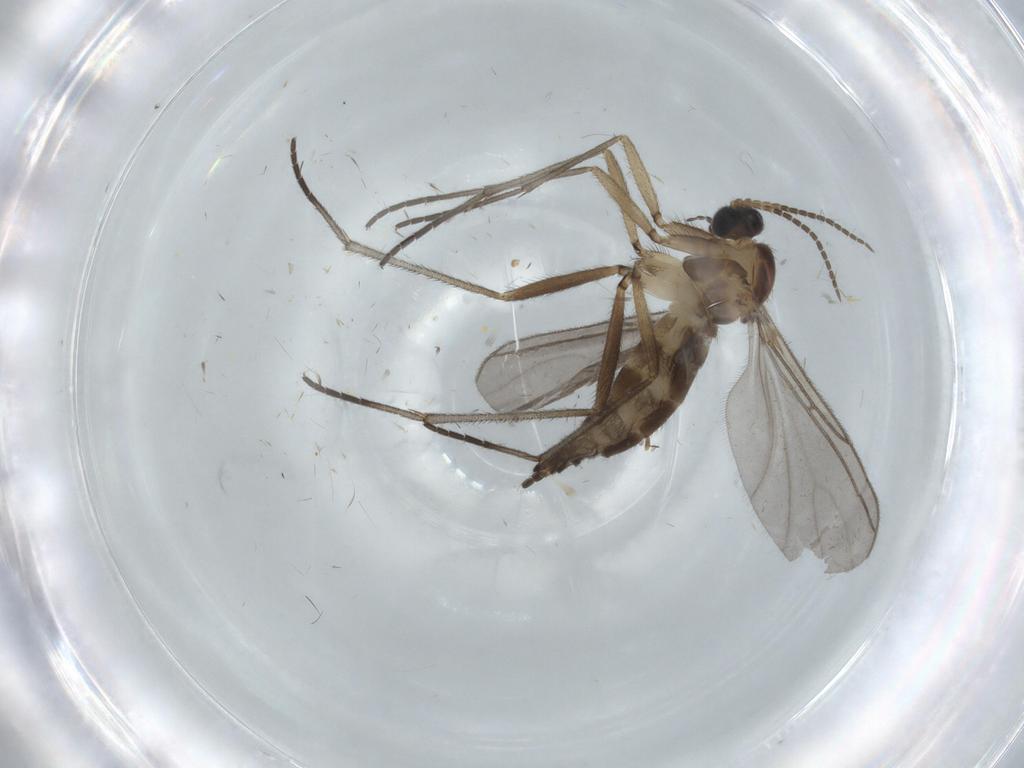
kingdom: Animalia
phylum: Arthropoda
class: Insecta
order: Diptera
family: Sciaridae
